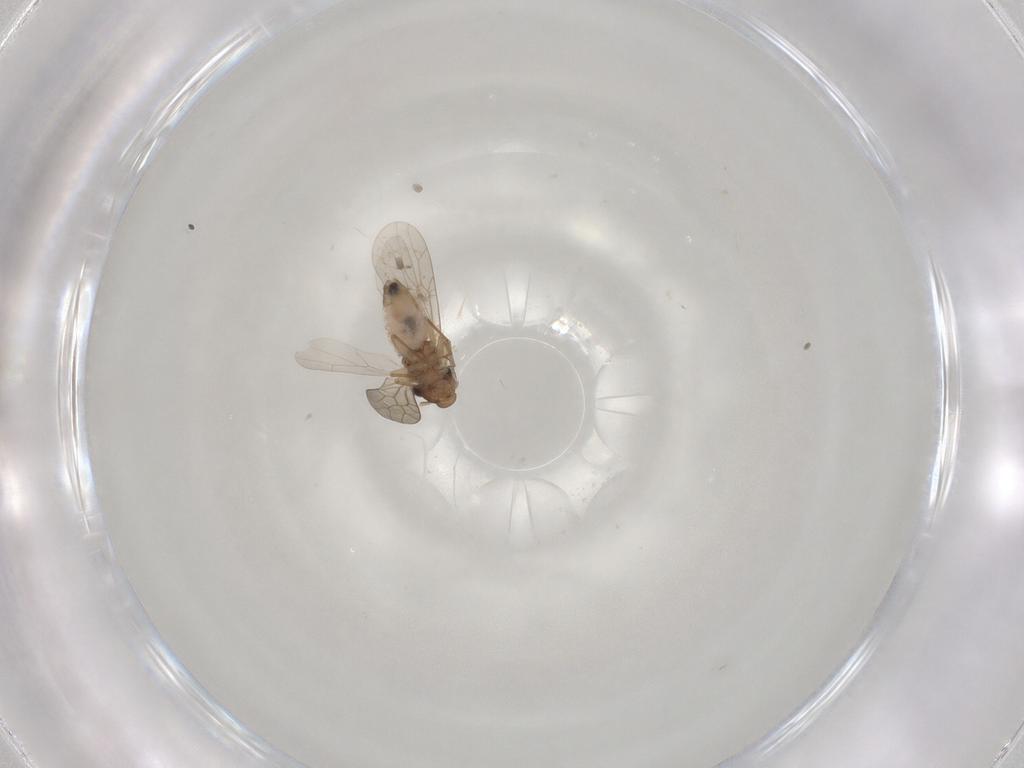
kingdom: Animalia
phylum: Arthropoda
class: Insecta
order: Psocodea
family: Lepidopsocidae
